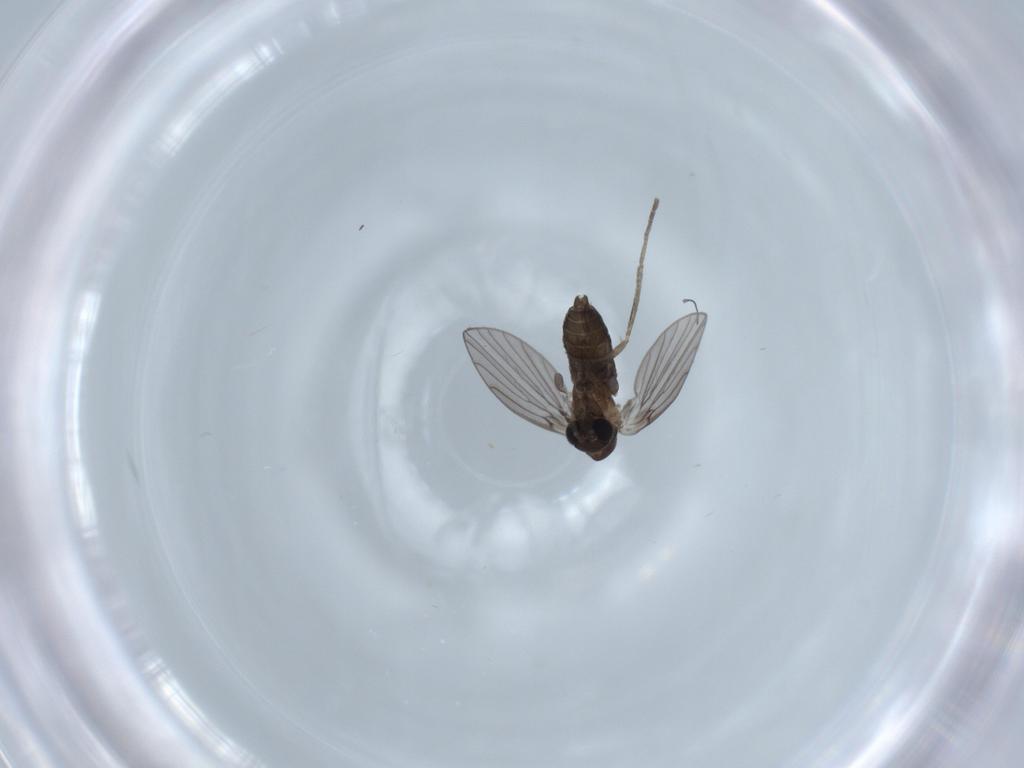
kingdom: Animalia
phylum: Arthropoda
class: Insecta
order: Diptera
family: Psychodidae
